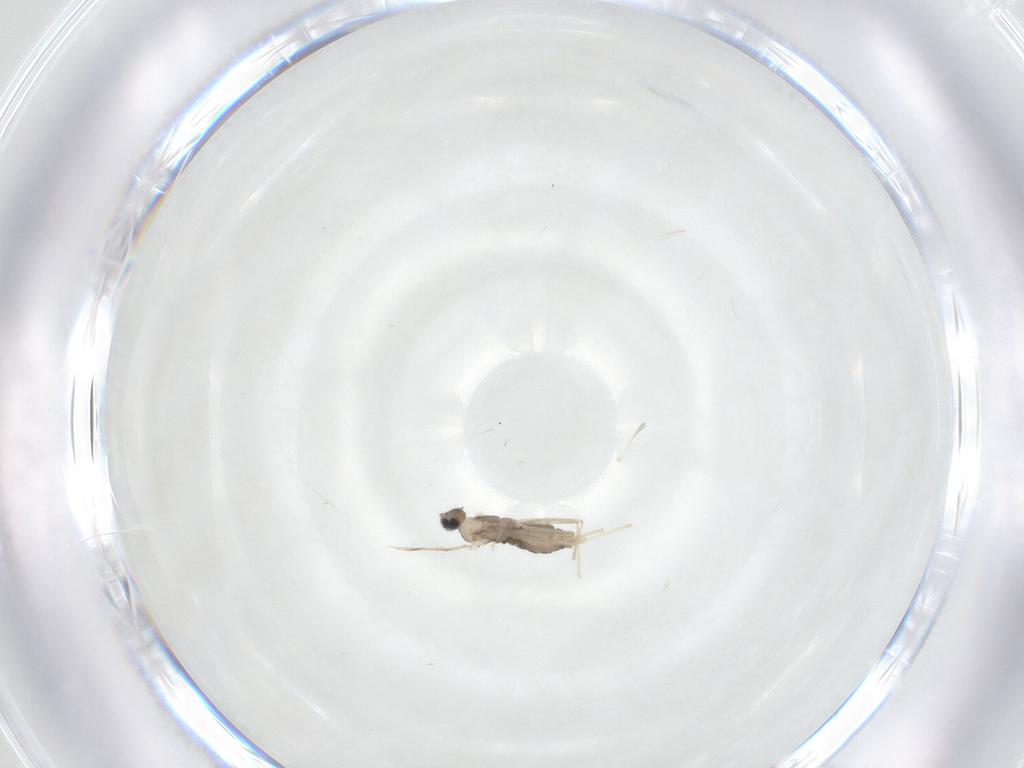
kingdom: Animalia
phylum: Arthropoda
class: Insecta
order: Diptera
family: Cecidomyiidae
